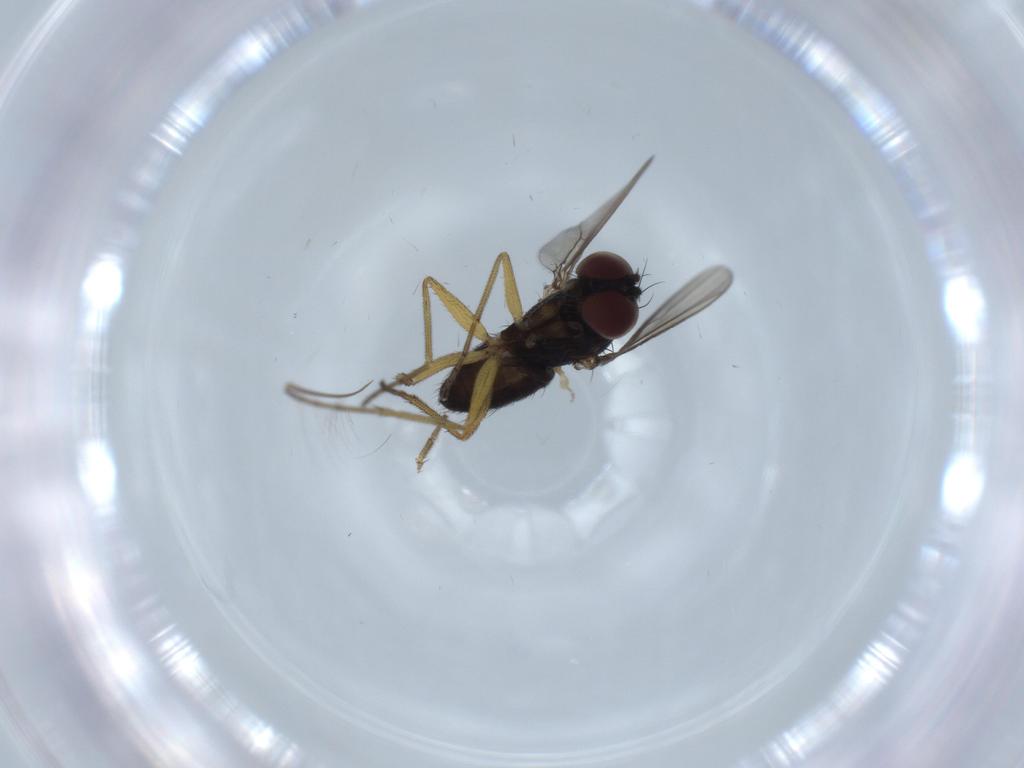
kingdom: Animalia
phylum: Arthropoda
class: Insecta
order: Diptera
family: Dolichopodidae
